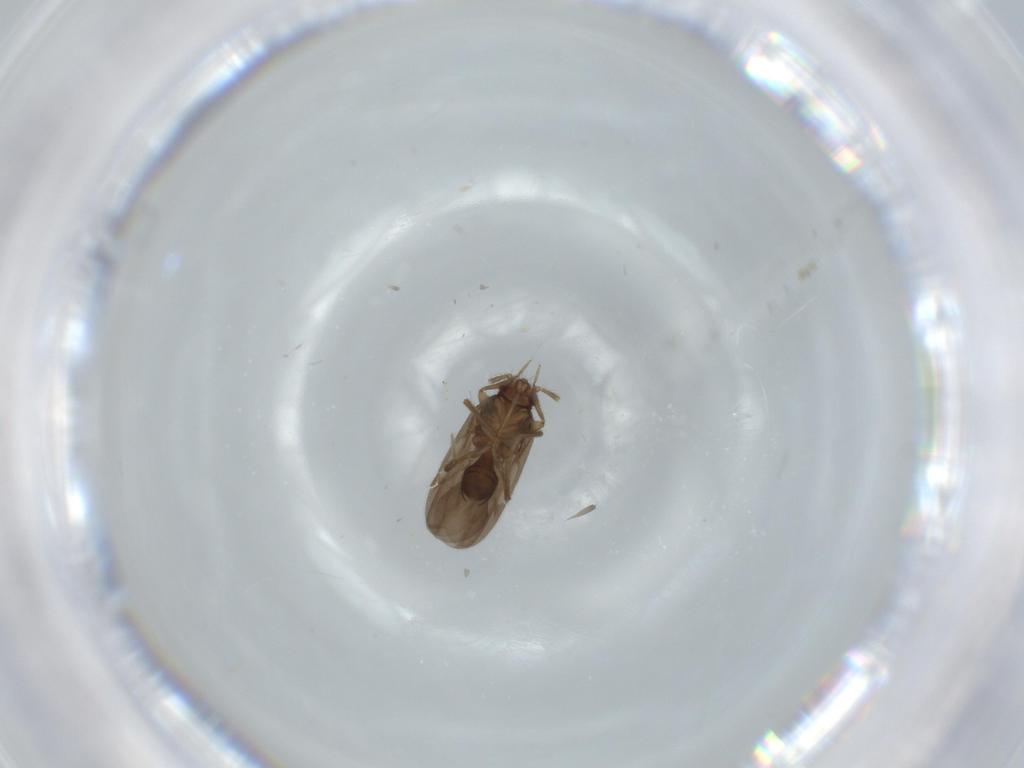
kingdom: Animalia
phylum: Arthropoda
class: Insecta
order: Hemiptera
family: Ceratocombidae
